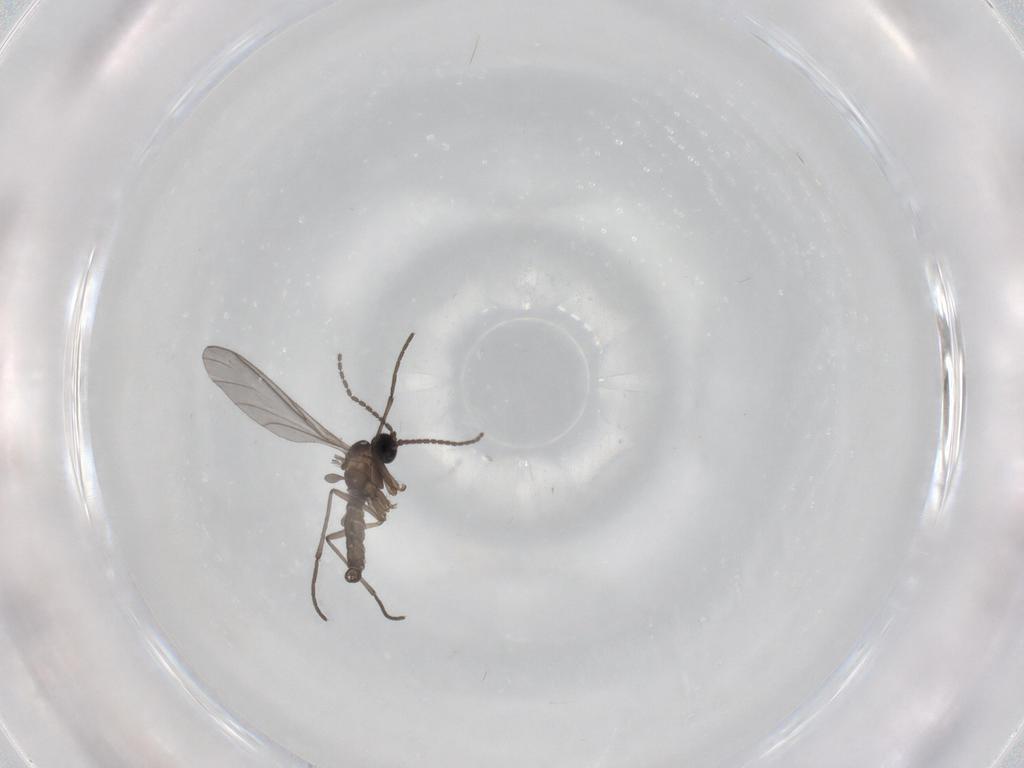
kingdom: Animalia
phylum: Arthropoda
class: Insecta
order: Diptera
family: Sciaridae
